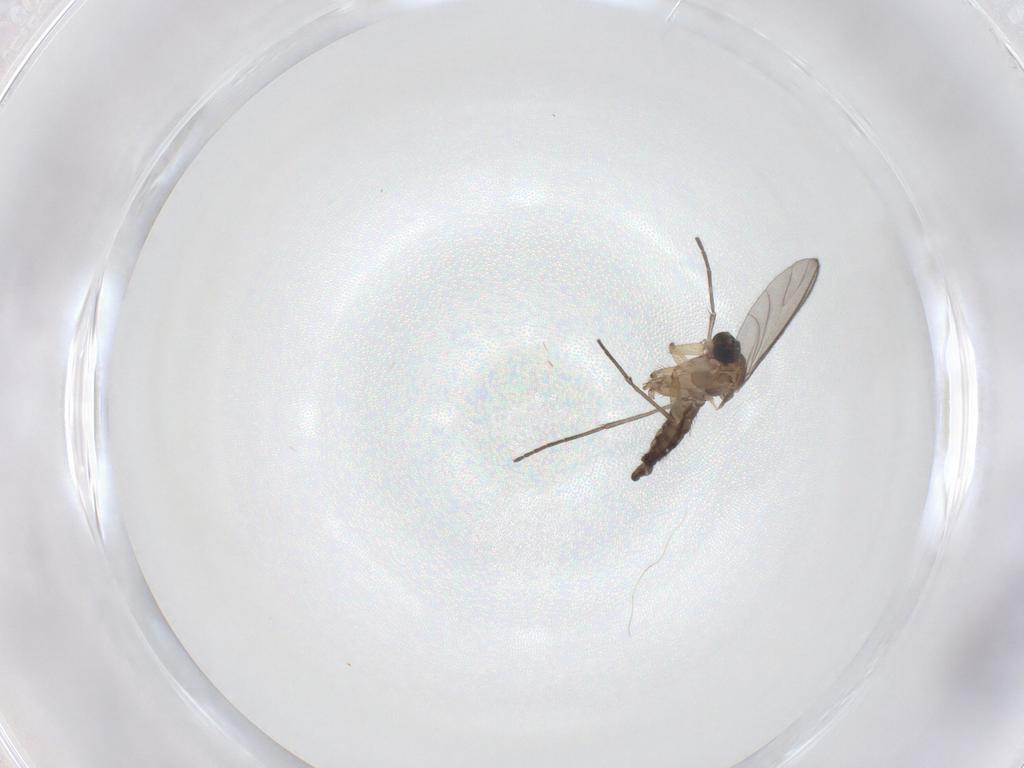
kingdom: Animalia
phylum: Arthropoda
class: Insecta
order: Diptera
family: Sciaridae
